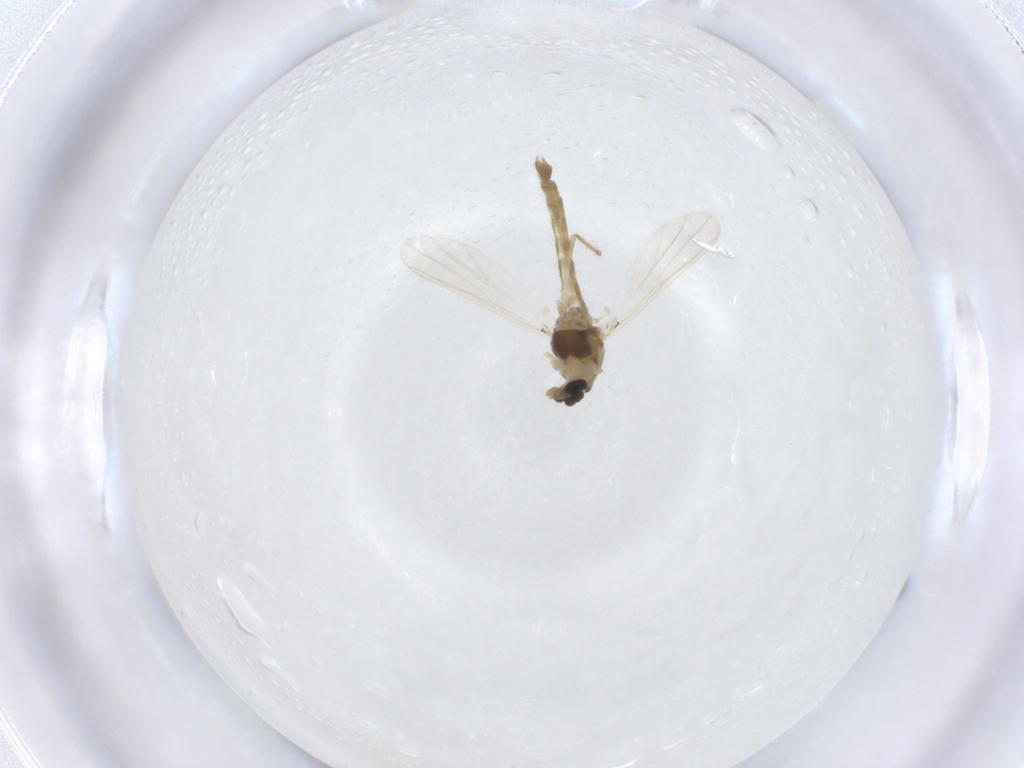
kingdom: Animalia
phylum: Arthropoda
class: Insecta
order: Diptera
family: Chironomidae
